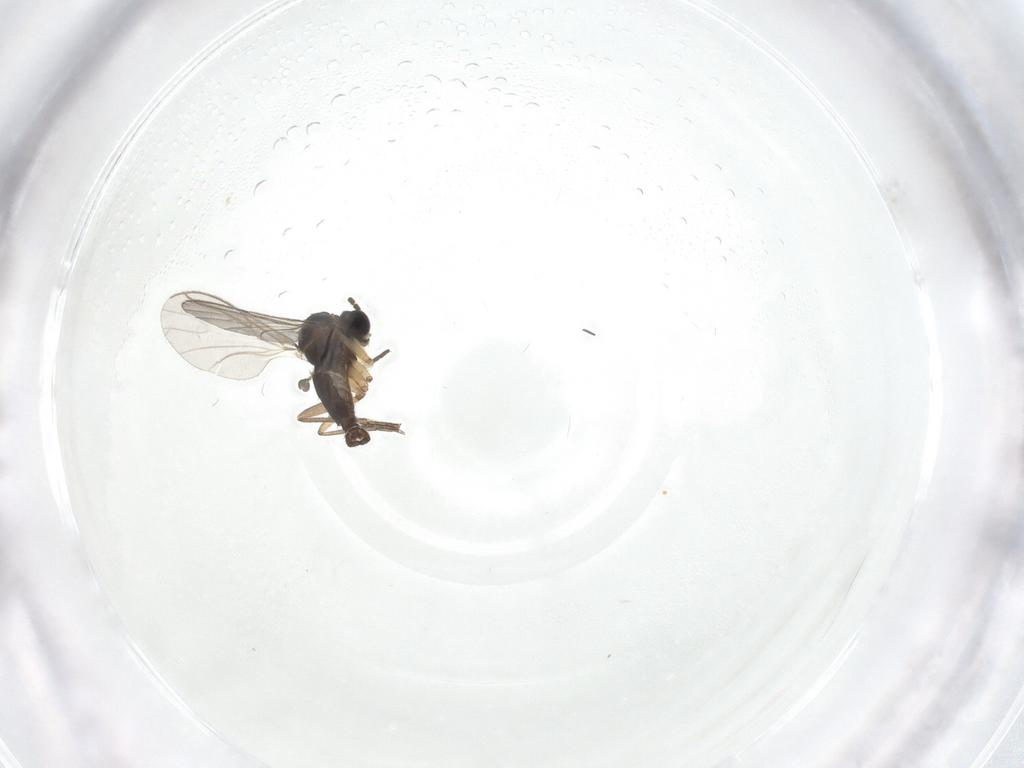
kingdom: Animalia
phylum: Arthropoda
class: Insecta
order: Diptera
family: Cecidomyiidae
